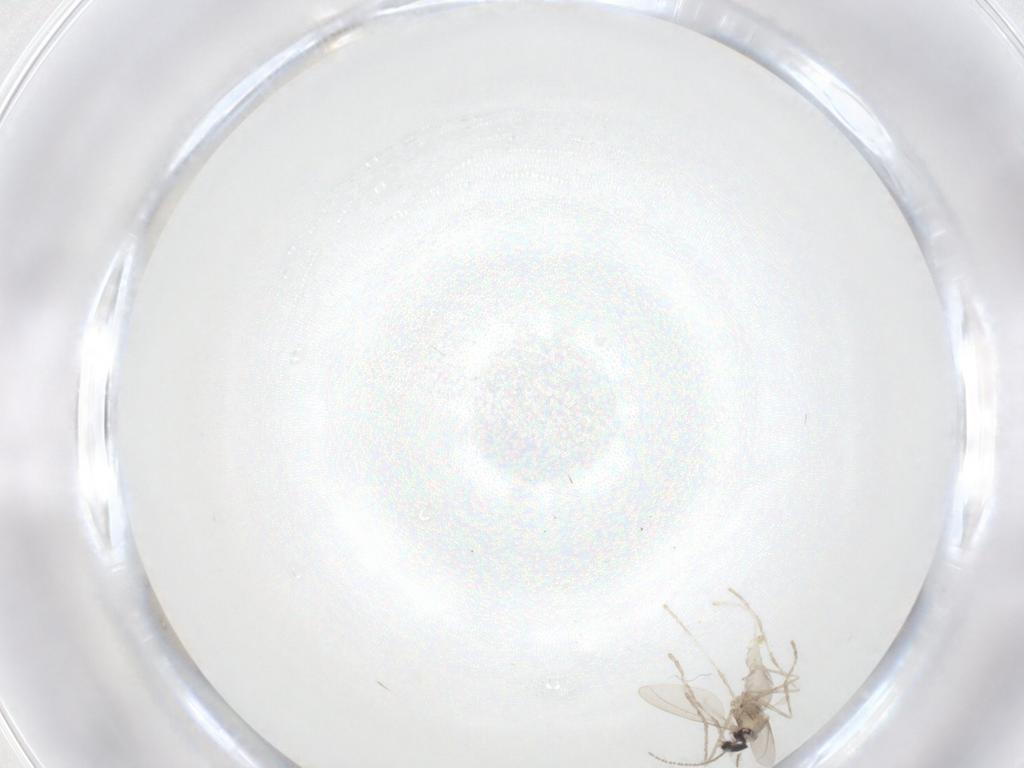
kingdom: Animalia
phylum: Arthropoda
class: Insecta
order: Diptera
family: Cecidomyiidae
